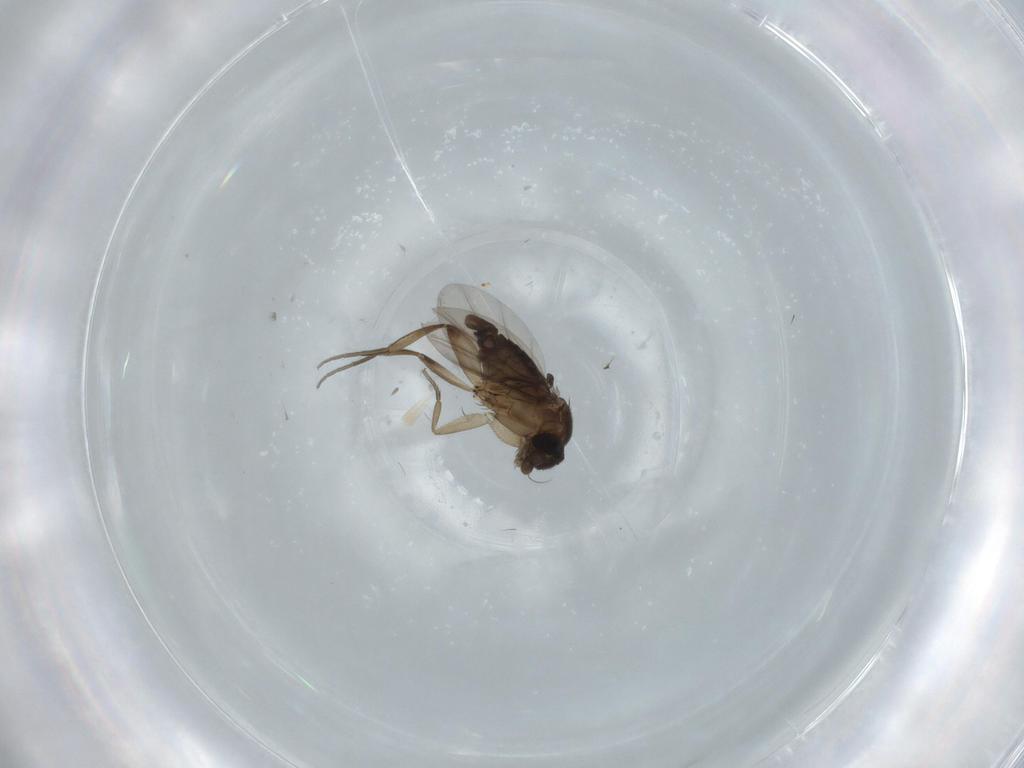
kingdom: Animalia
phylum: Arthropoda
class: Insecta
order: Diptera
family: Phoridae
